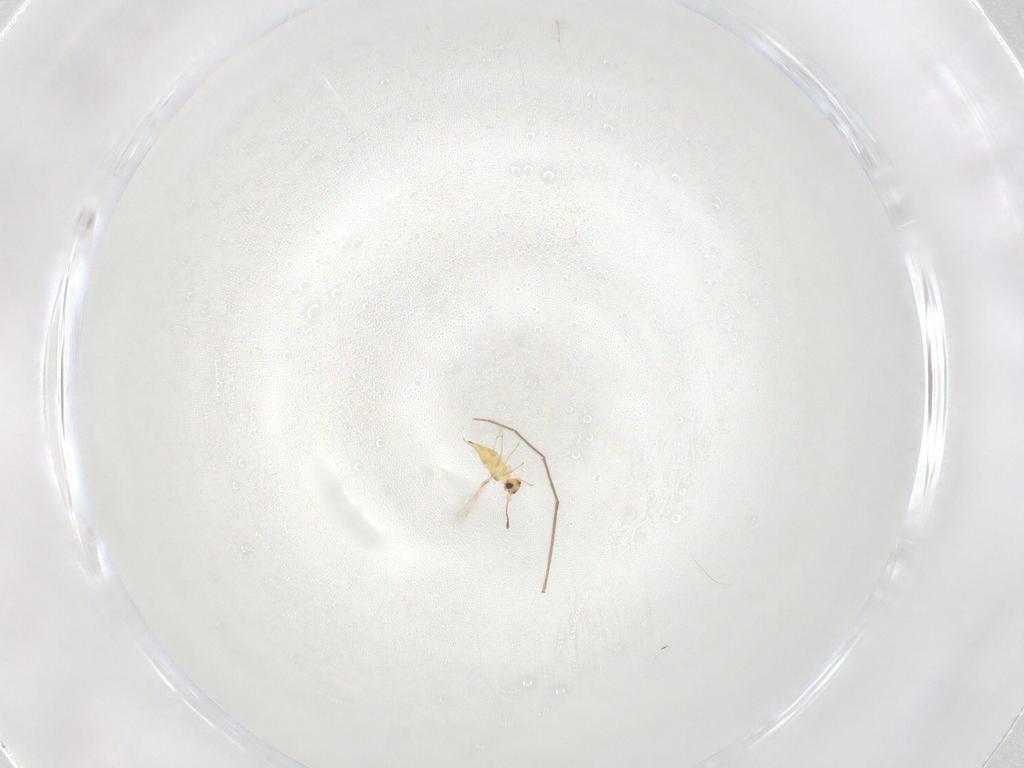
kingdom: Animalia
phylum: Arthropoda
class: Insecta
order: Hymenoptera
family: Mymaridae
